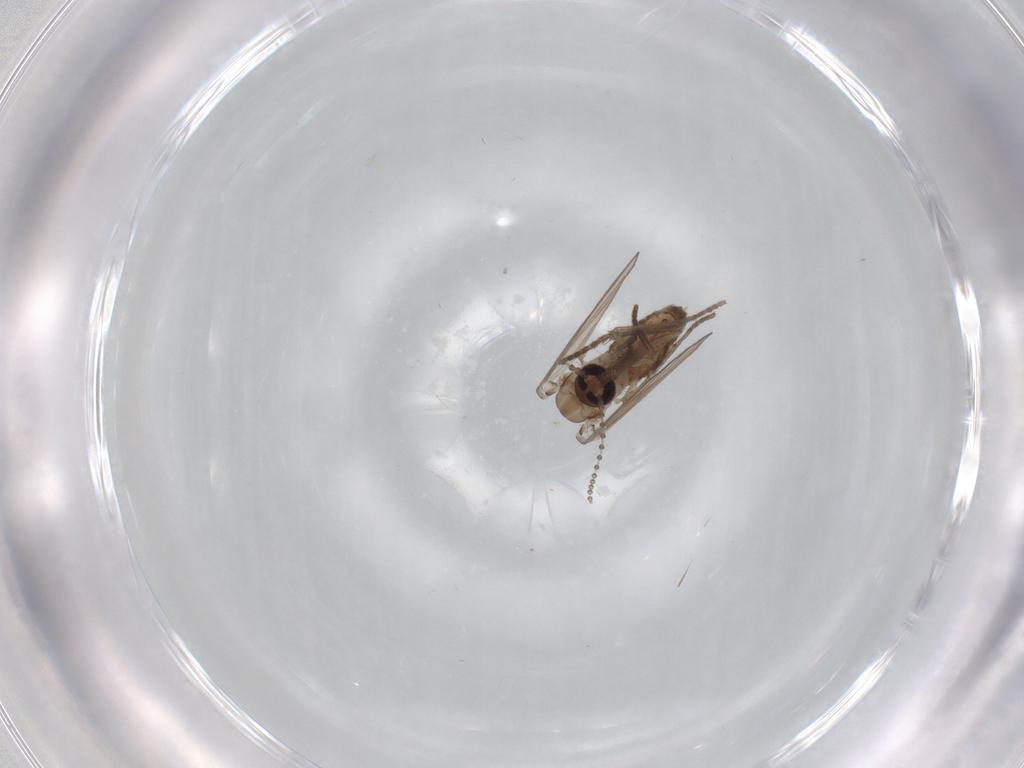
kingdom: Animalia
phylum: Arthropoda
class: Insecta
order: Diptera
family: Psychodidae
